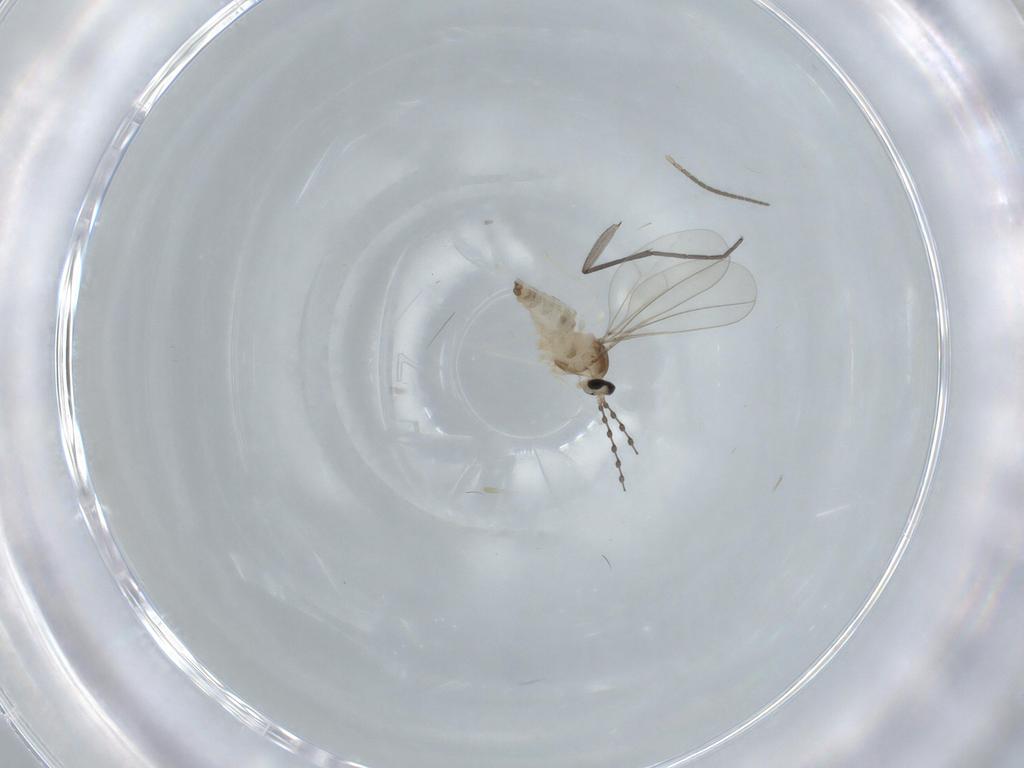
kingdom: Animalia
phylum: Arthropoda
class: Insecta
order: Diptera
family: Sciaridae
